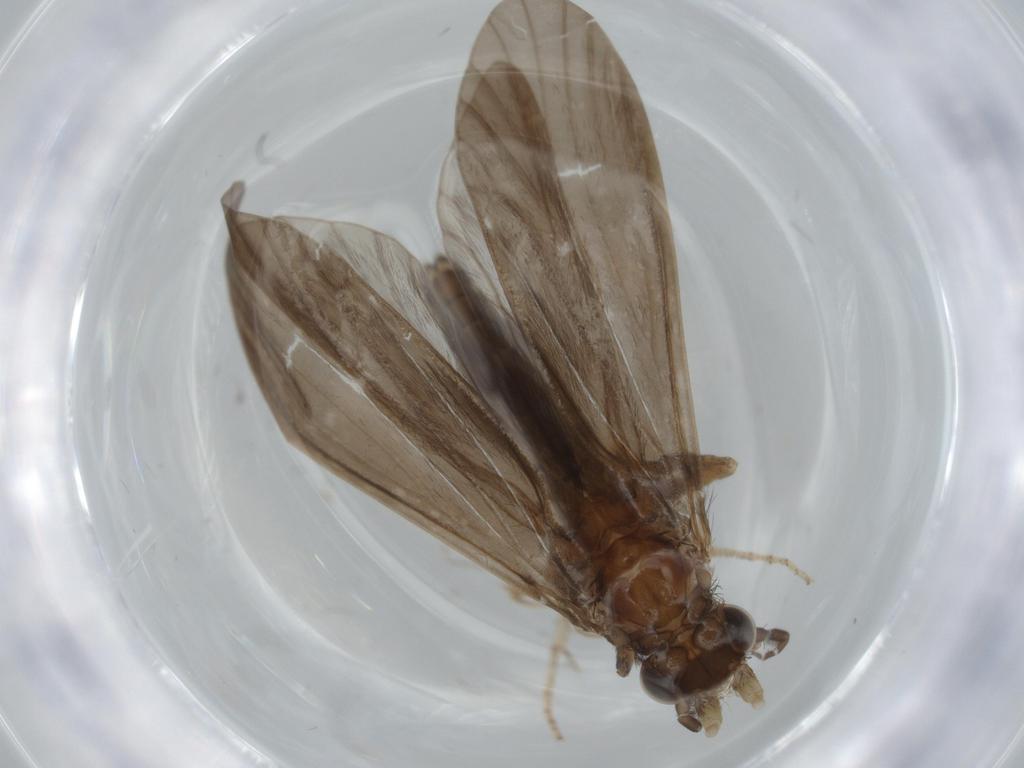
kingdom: Animalia
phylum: Arthropoda
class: Insecta
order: Trichoptera
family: Helicopsychidae
